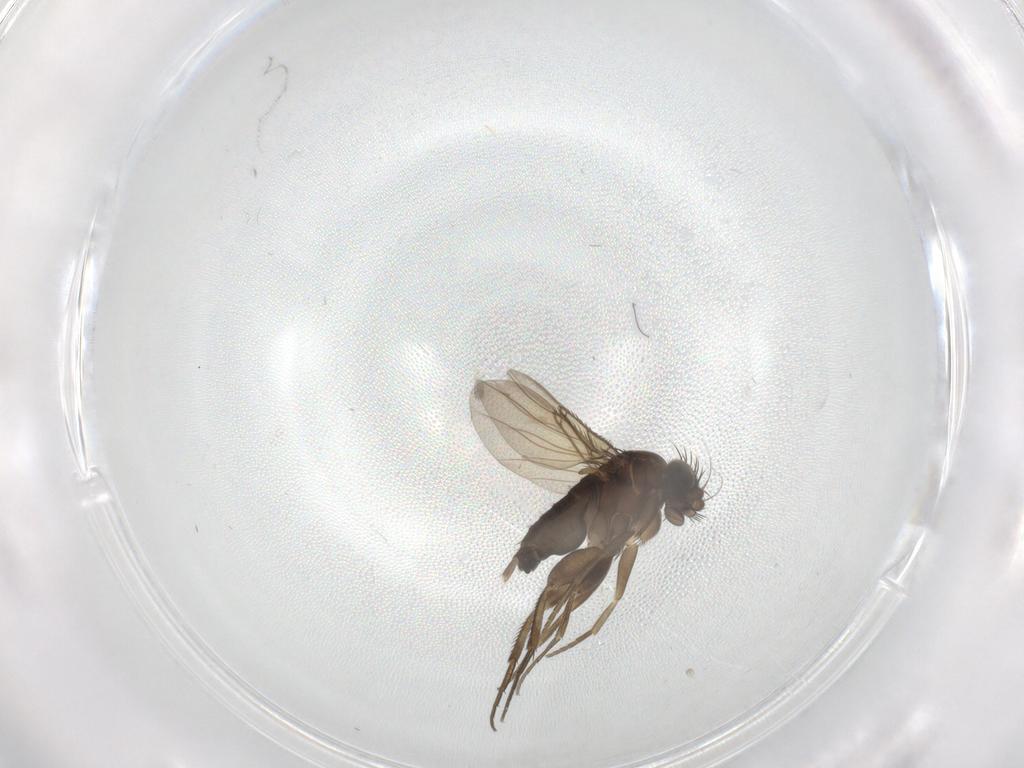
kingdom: Animalia
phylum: Arthropoda
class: Insecta
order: Diptera
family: Phoridae
